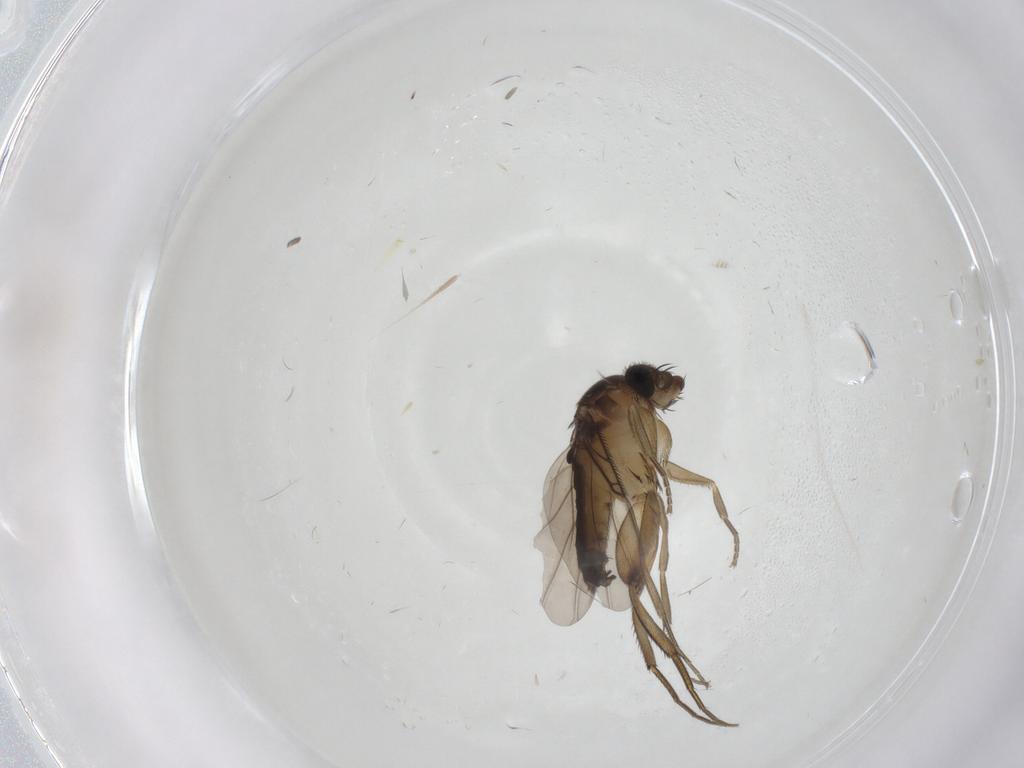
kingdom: Animalia
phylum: Arthropoda
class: Insecta
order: Diptera
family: Phoridae
